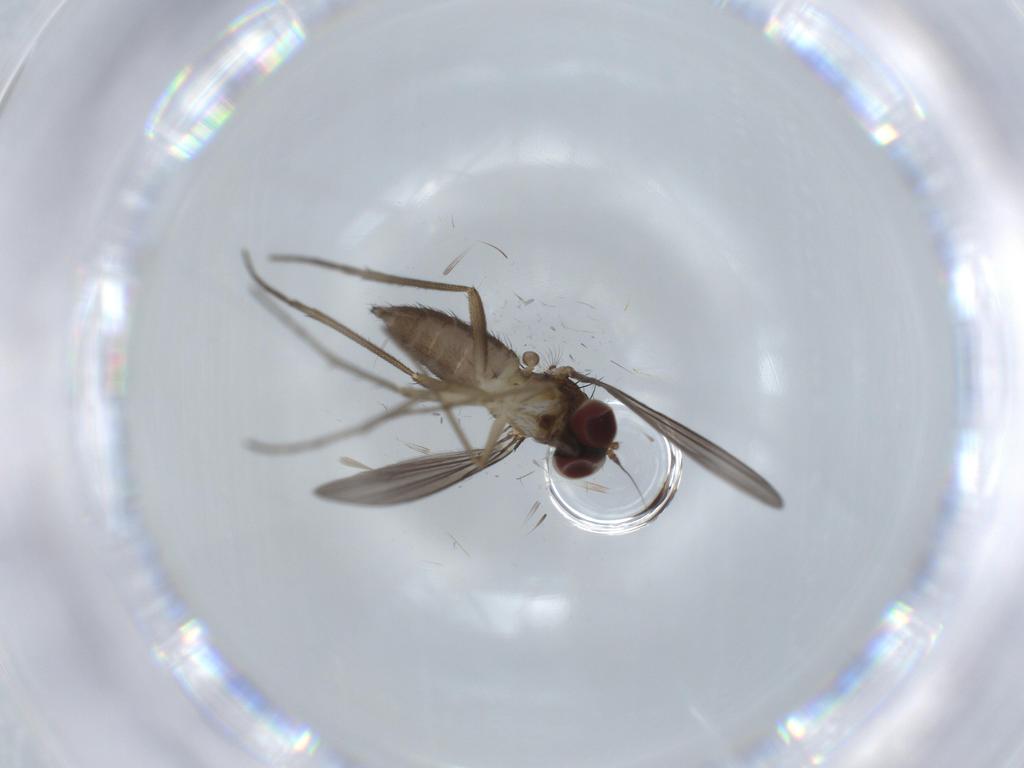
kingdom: Animalia
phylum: Arthropoda
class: Insecta
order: Diptera
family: Dolichopodidae
